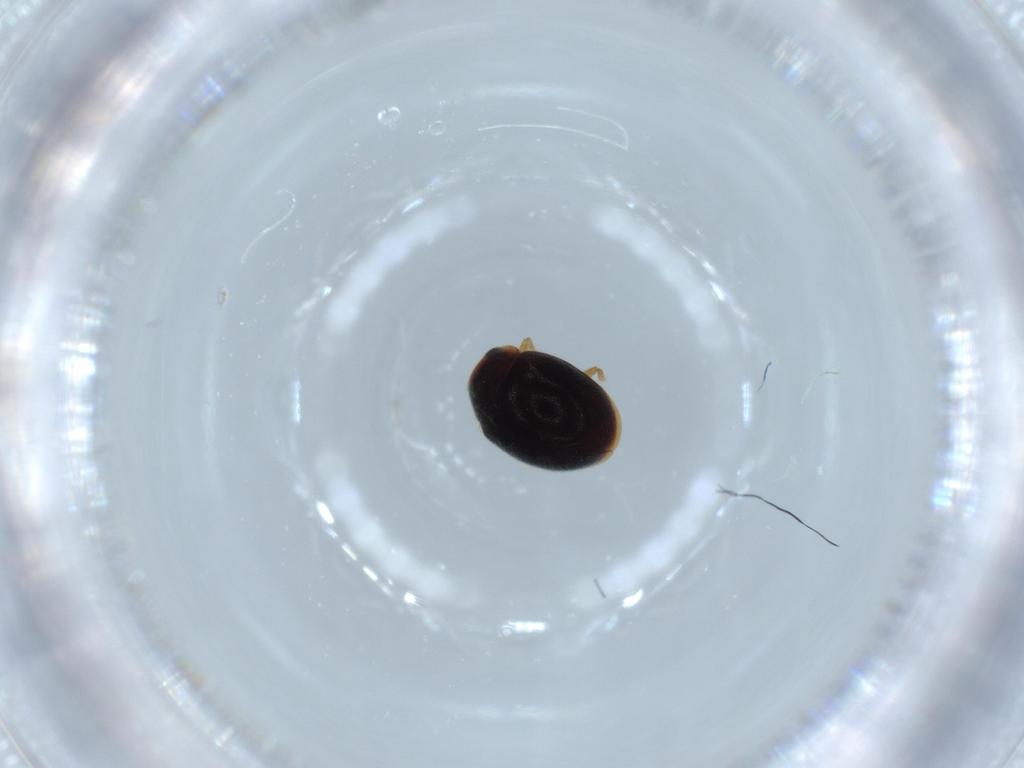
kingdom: Animalia
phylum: Arthropoda
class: Insecta
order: Coleoptera
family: Coccinellidae
